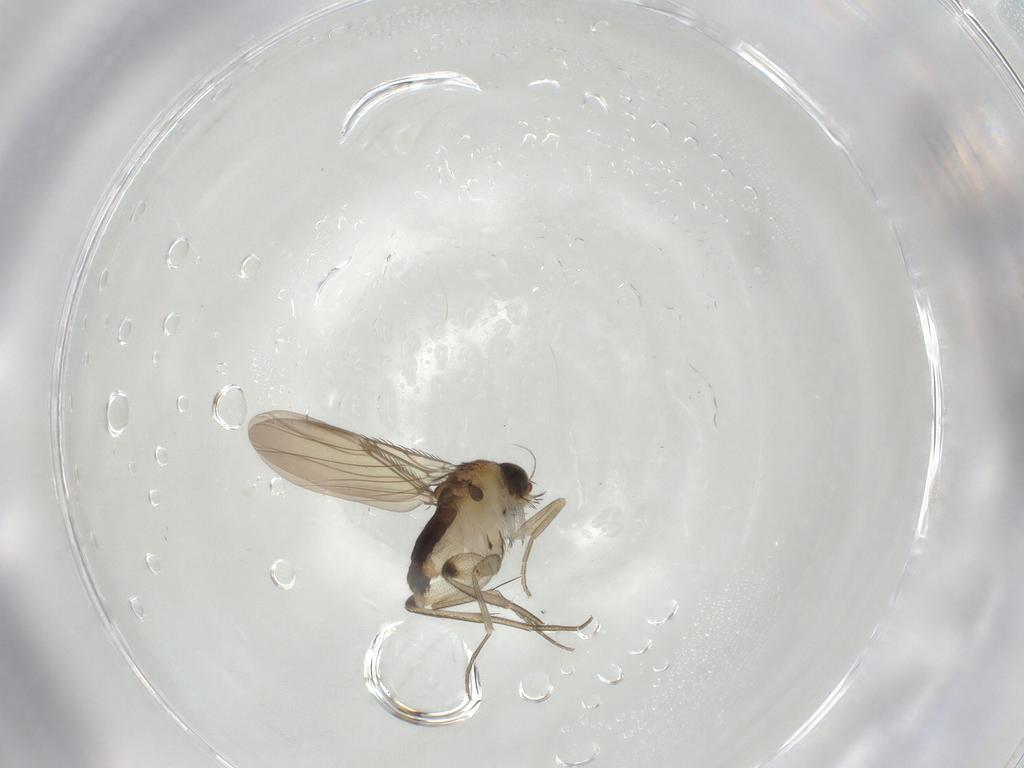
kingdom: Animalia
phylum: Arthropoda
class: Insecta
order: Diptera
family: Phoridae
